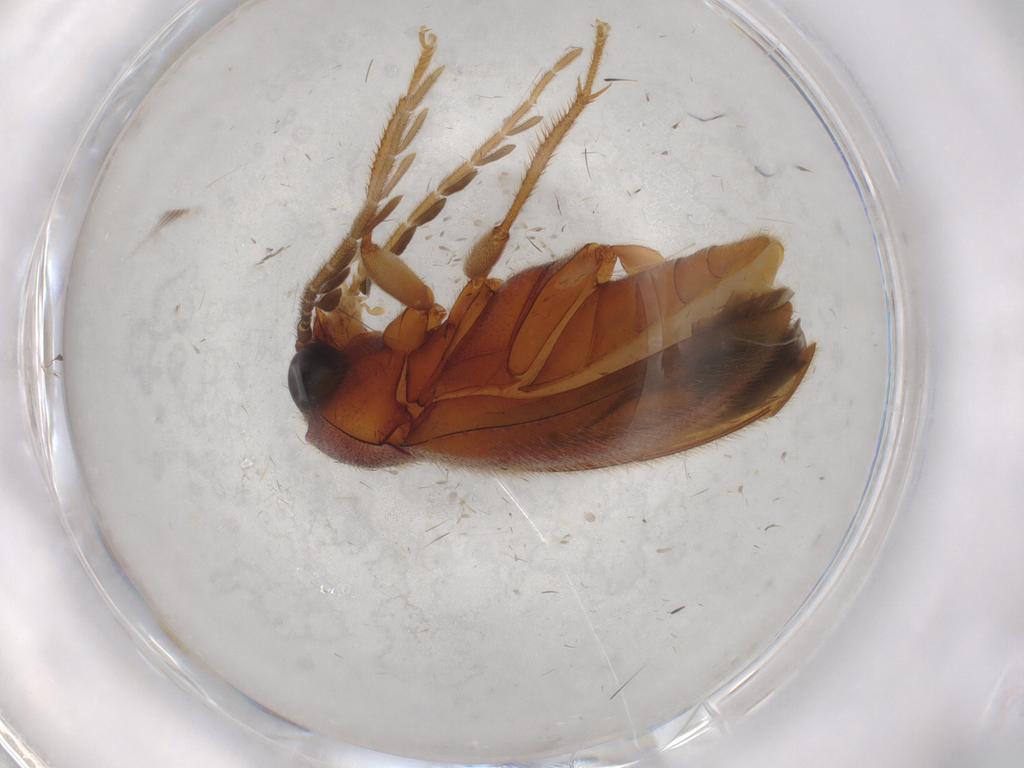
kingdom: Animalia
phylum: Arthropoda
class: Insecta
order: Coleoptera
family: Ptilodactylidae
